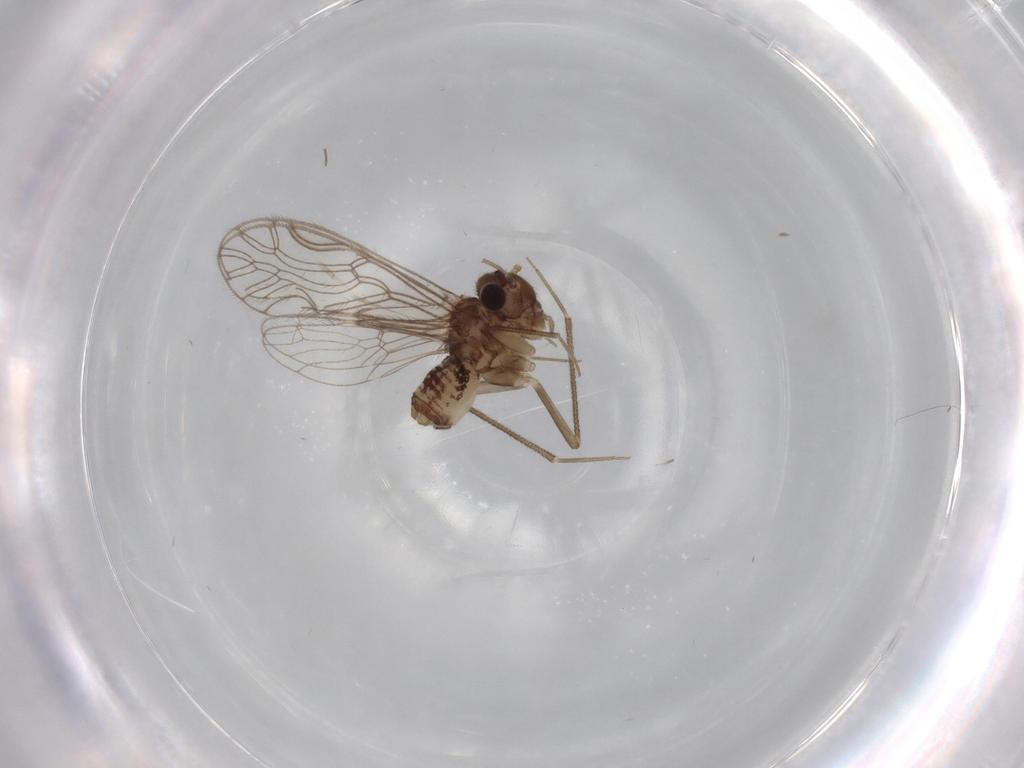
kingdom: Animalia
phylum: Arthropoda
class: Insecta
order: Psocodea
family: Epipsocidae
